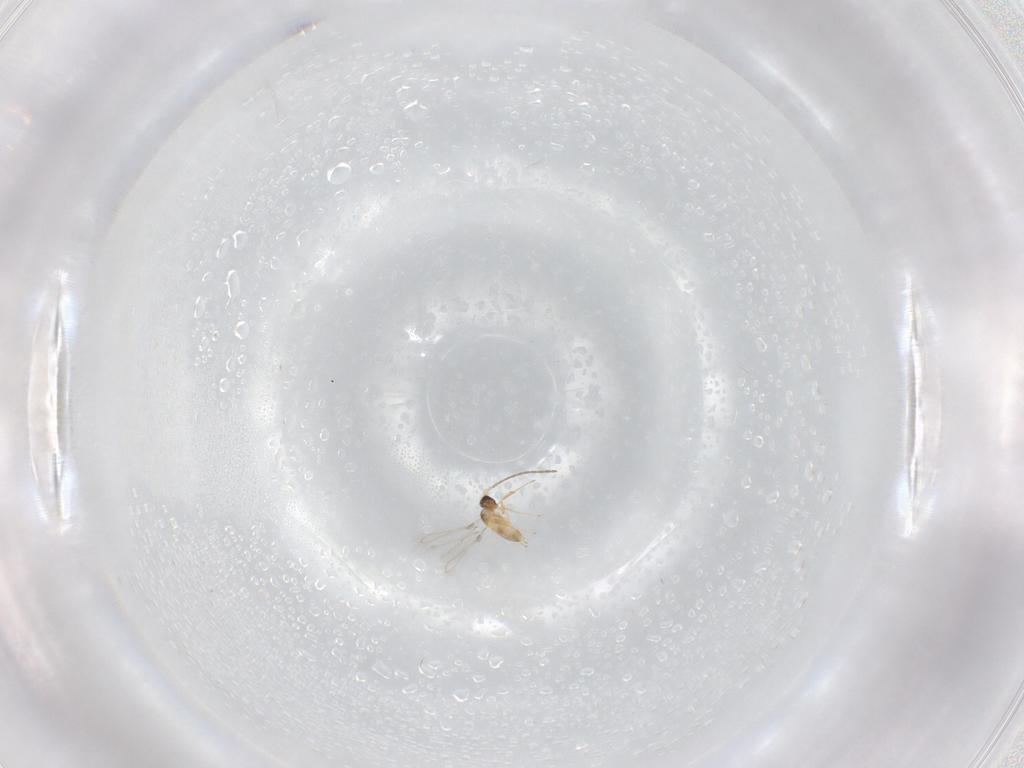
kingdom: Animalia
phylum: Arthropoda
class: Insecta
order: Hymenoptera
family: Mymaridae
